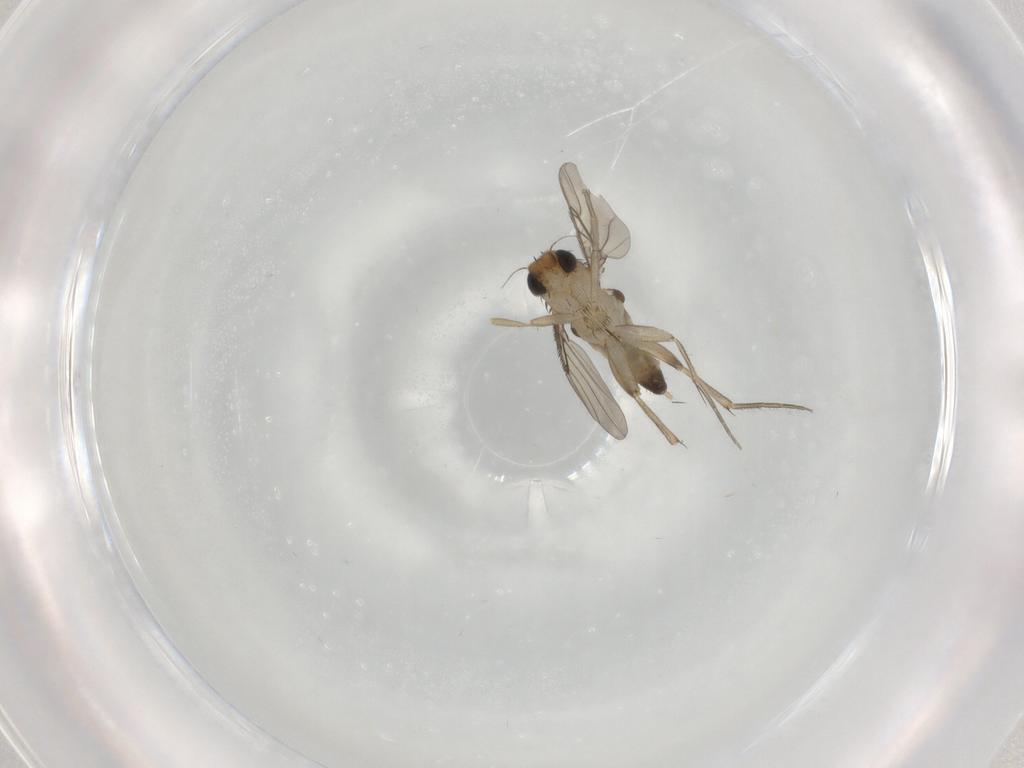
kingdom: Animalia
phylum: Arthropoda
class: Insecta
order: Diptera
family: Phoridae
